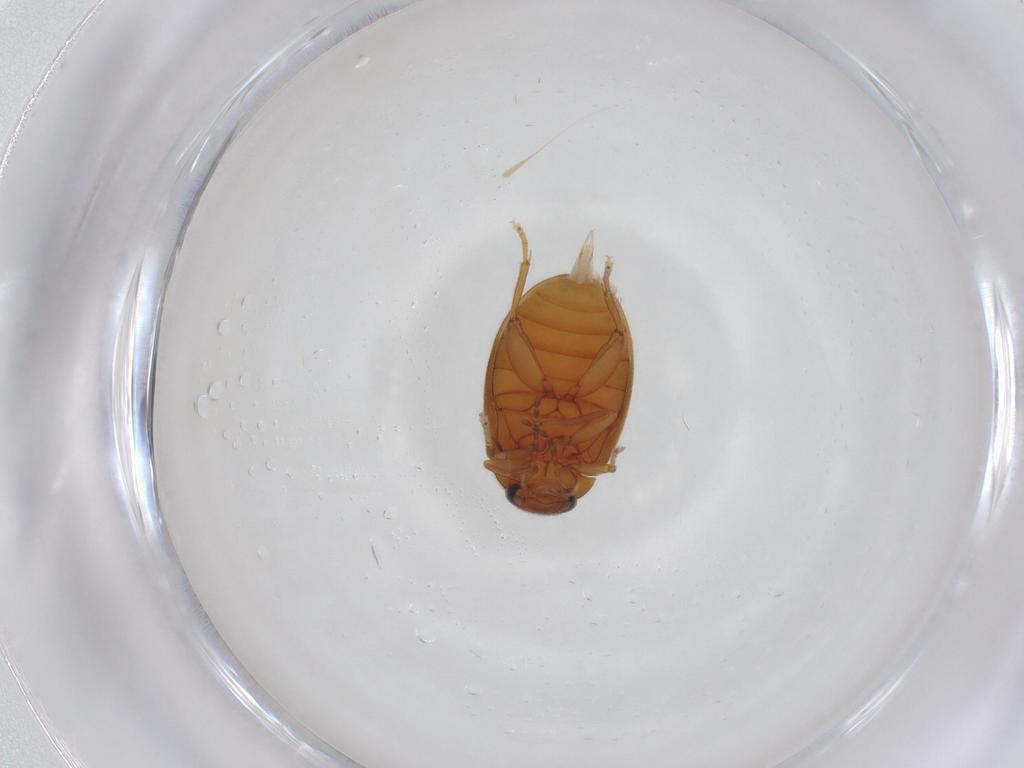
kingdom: Animalia
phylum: Arthropoda
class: Insecta
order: Coleoptera
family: Scirtidae
